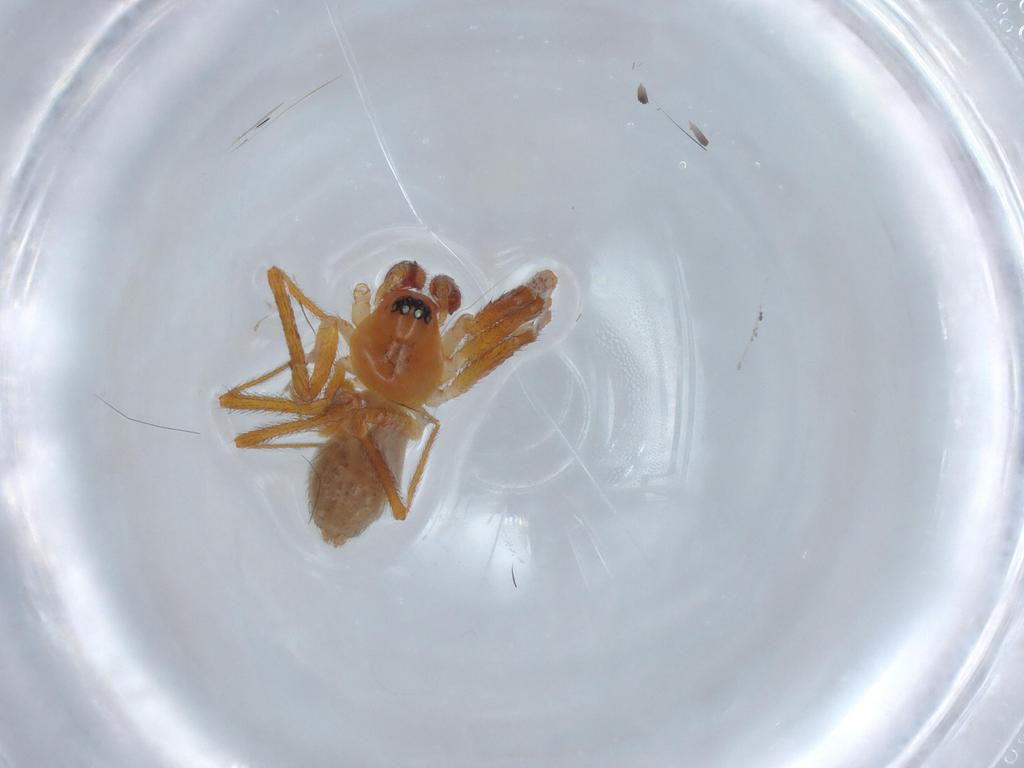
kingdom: Animalia
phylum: Arthropoda
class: Arachnida
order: Araneae
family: Linyphiidae
